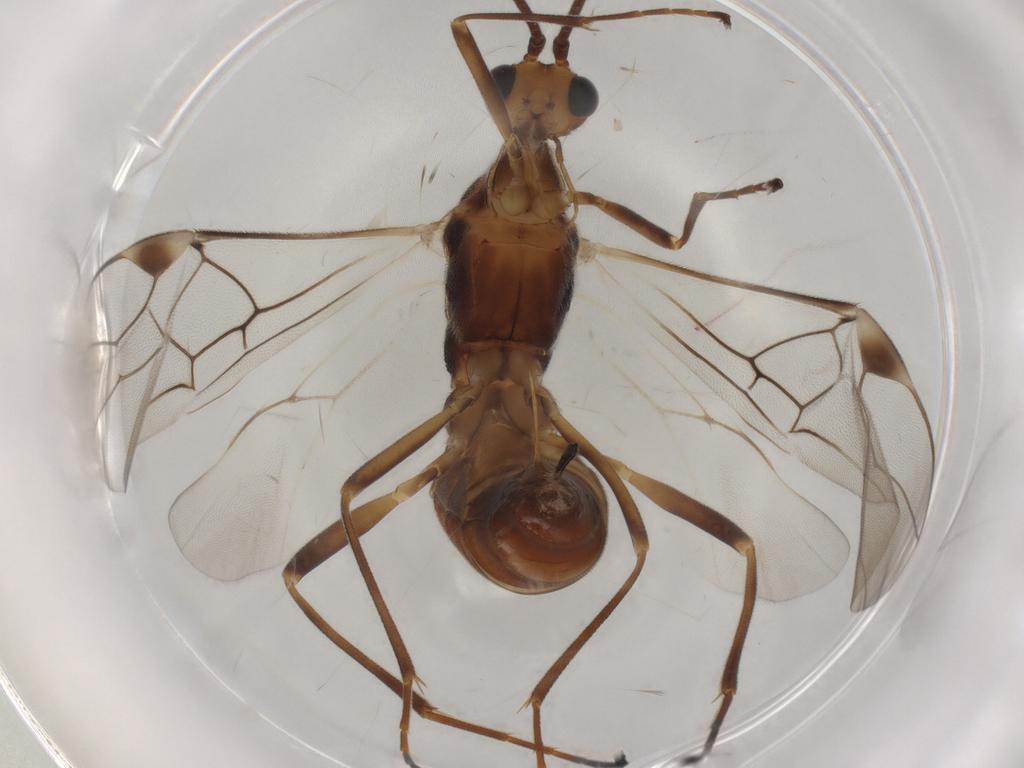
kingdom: Animalia
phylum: Arthropoda
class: Insecta
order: Hymenoptera
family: Braconidae
